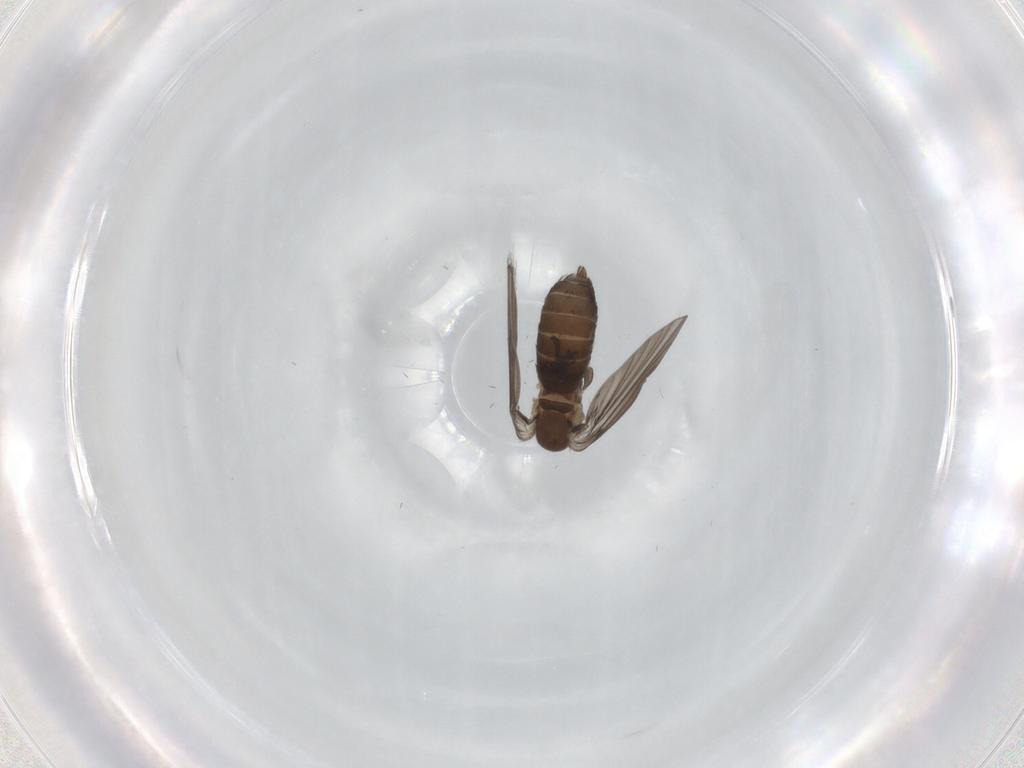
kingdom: Animalia
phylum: Arthropoda
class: Insecta
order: Diptera
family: Psychodidae
